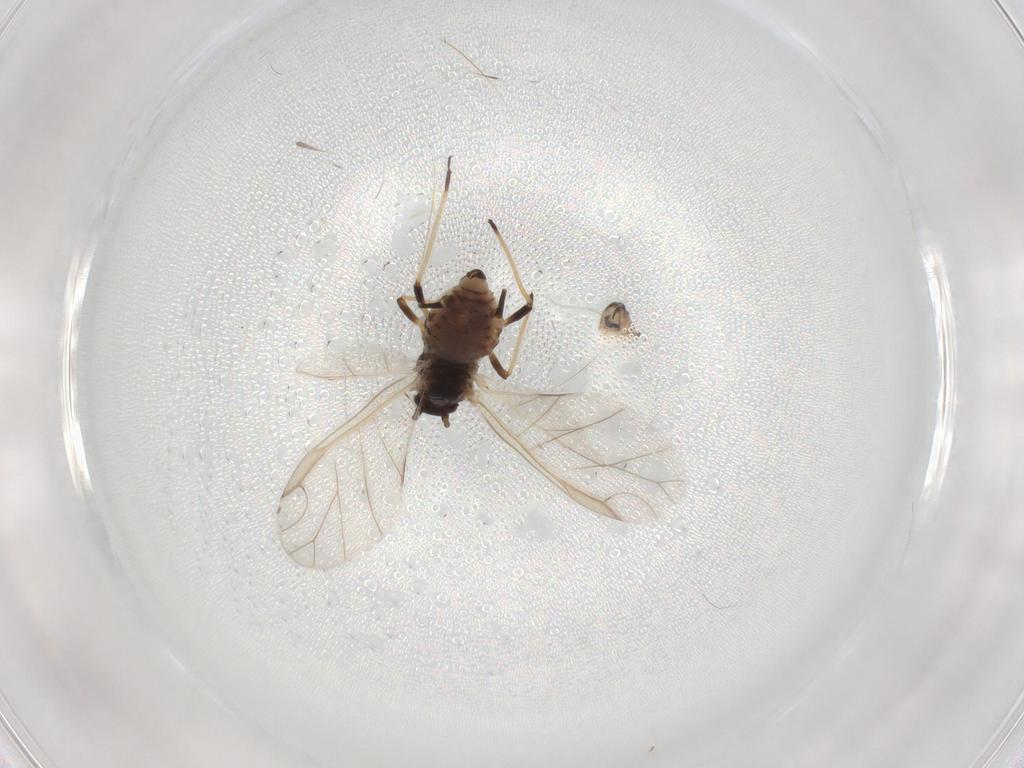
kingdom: Animalia
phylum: Arthropoda
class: Insecta
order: Hemiptera
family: Aphididae
